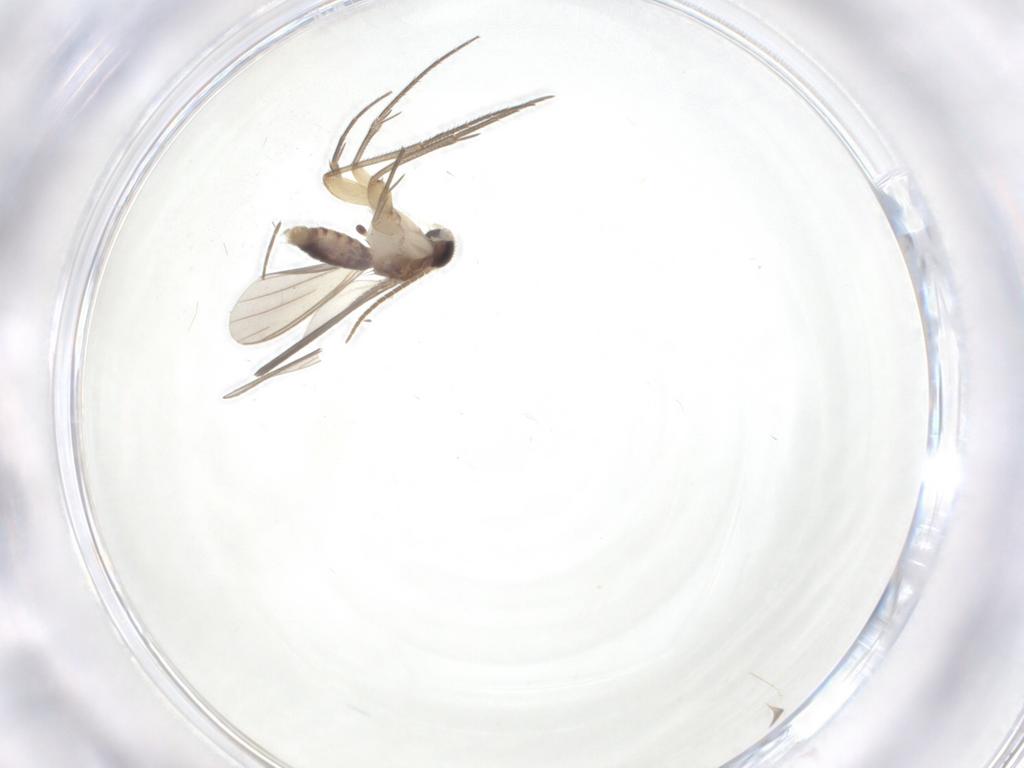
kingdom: Animalia
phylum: Arthropoda
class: Insecta
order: Diptera
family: Mycetophilidae
